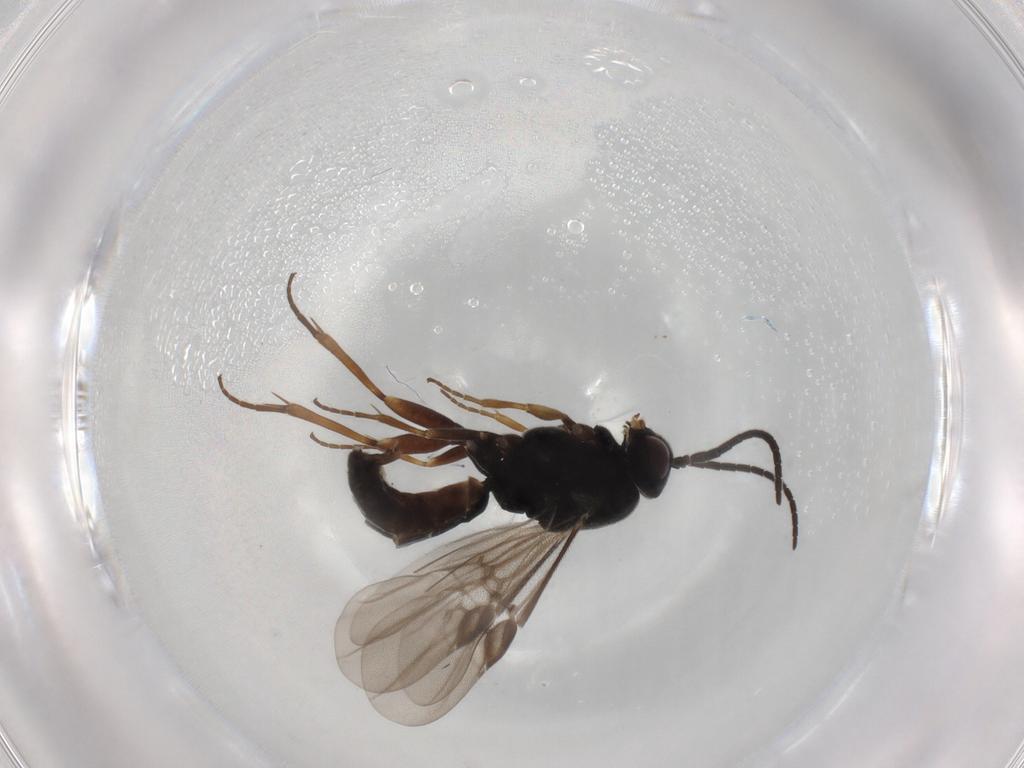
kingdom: Animalia
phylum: Arthropoda
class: Insecta
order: Hymenoptera
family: Braconidae
